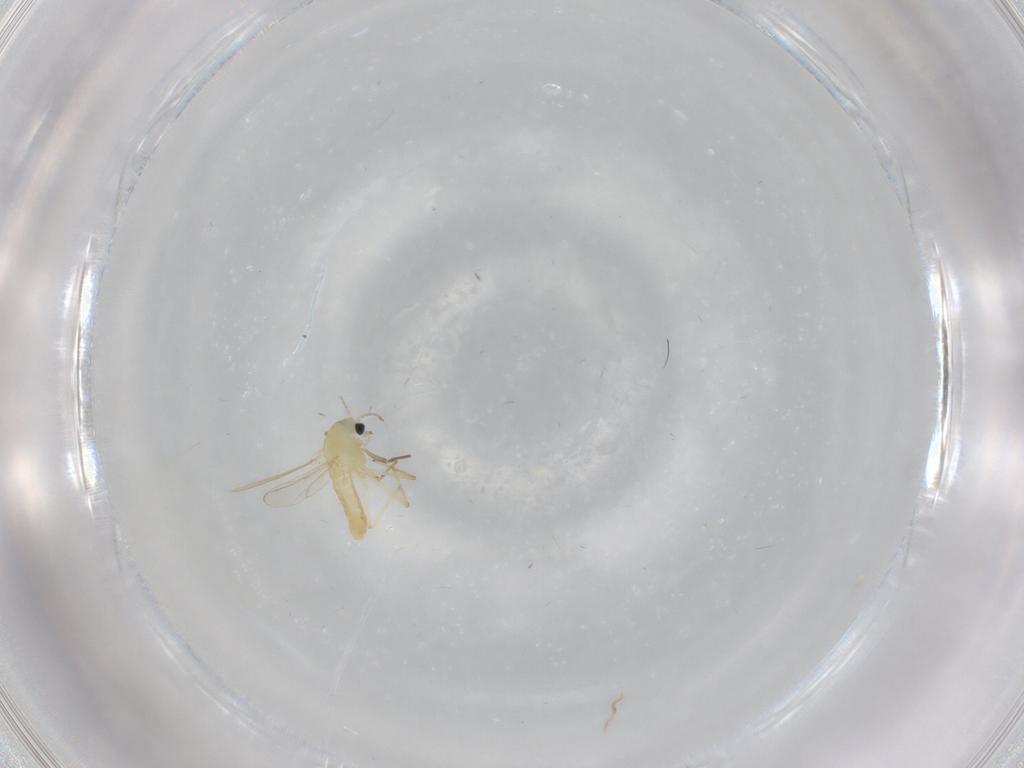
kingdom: Animalia
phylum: Arthropoda
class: Insecta
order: Diptera
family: Chironomidae
